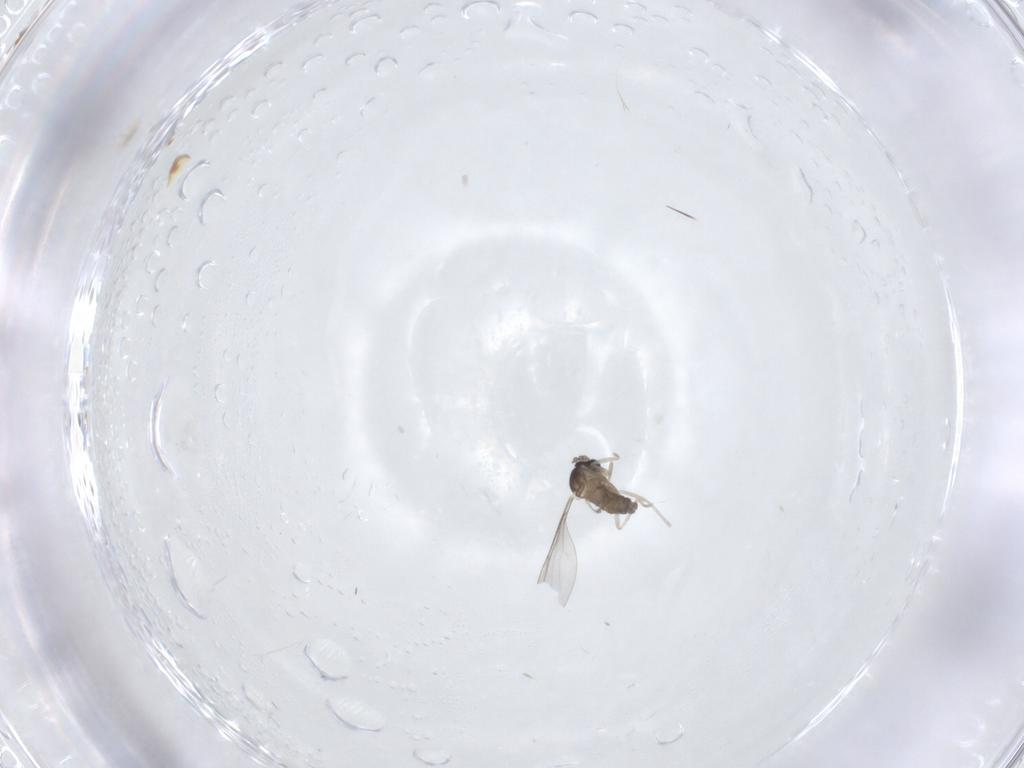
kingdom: Animalia
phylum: Arthropoda
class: Insecta
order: Diptera
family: Cecidomyiidae
